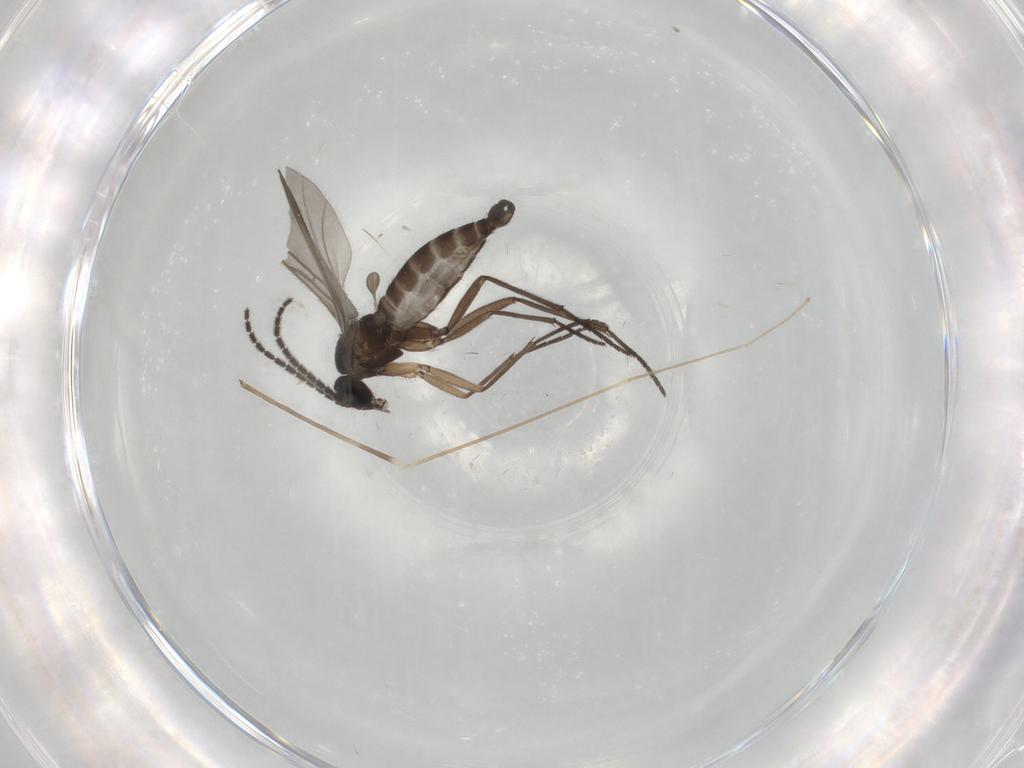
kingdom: Animalia
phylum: Arthropoda
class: Insecta
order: Diptera
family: Sciaridae
